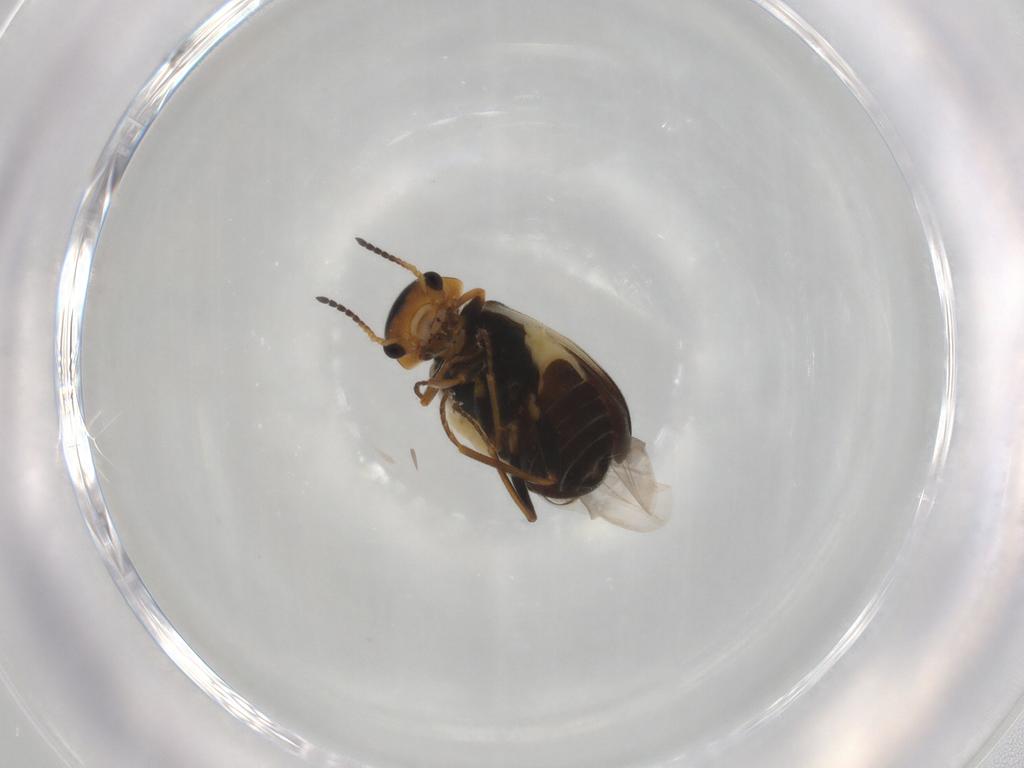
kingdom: Animalia
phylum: Arthropoda
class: Insecta
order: Coleoptera
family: Melyridae
